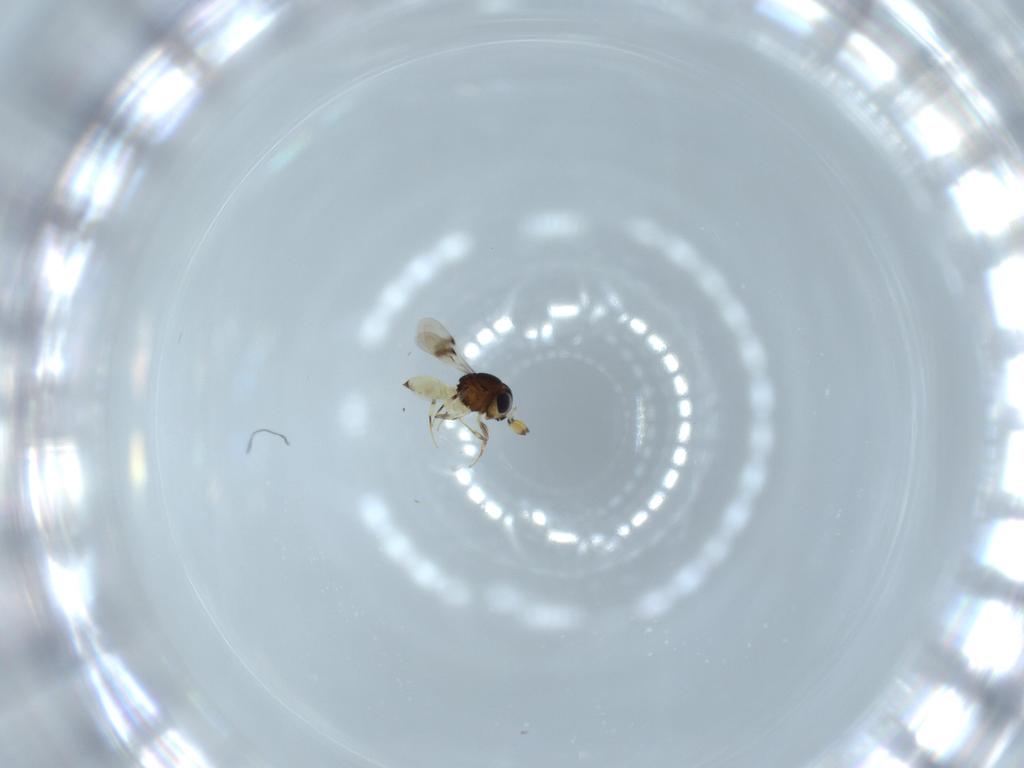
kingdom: Animalia
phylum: Arthropoda
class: Insecta
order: Hymenoptera
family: Scelionidae
